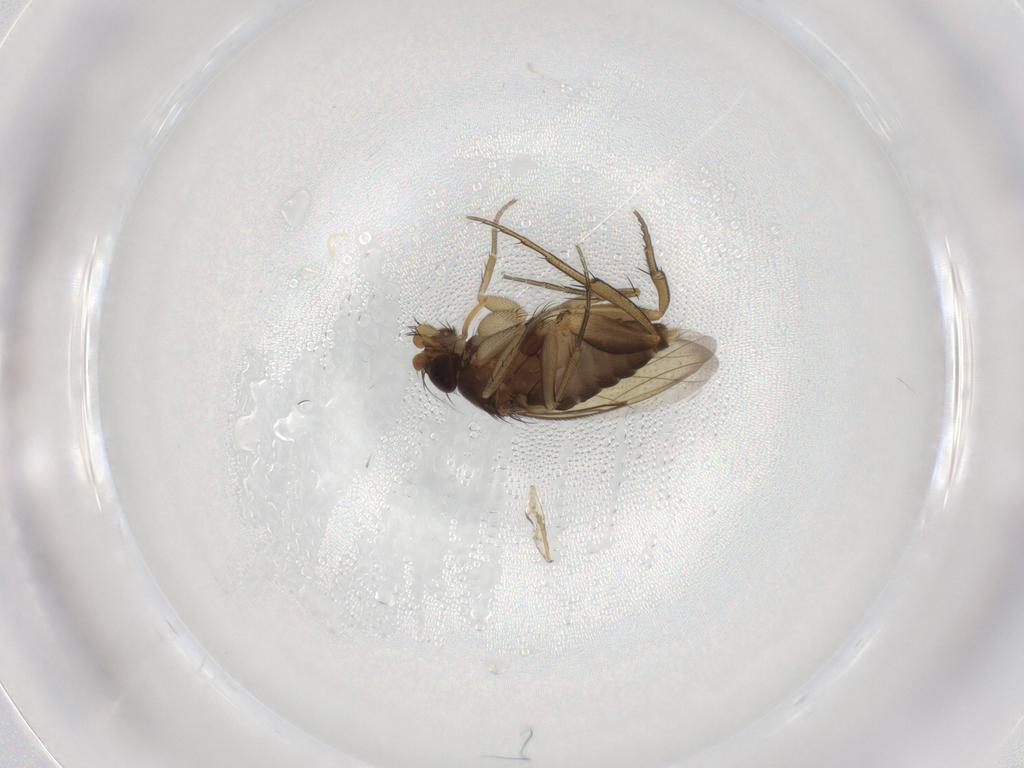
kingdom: Animalia
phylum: Arthropoda
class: Insecta
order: Diptera
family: Phoridae
